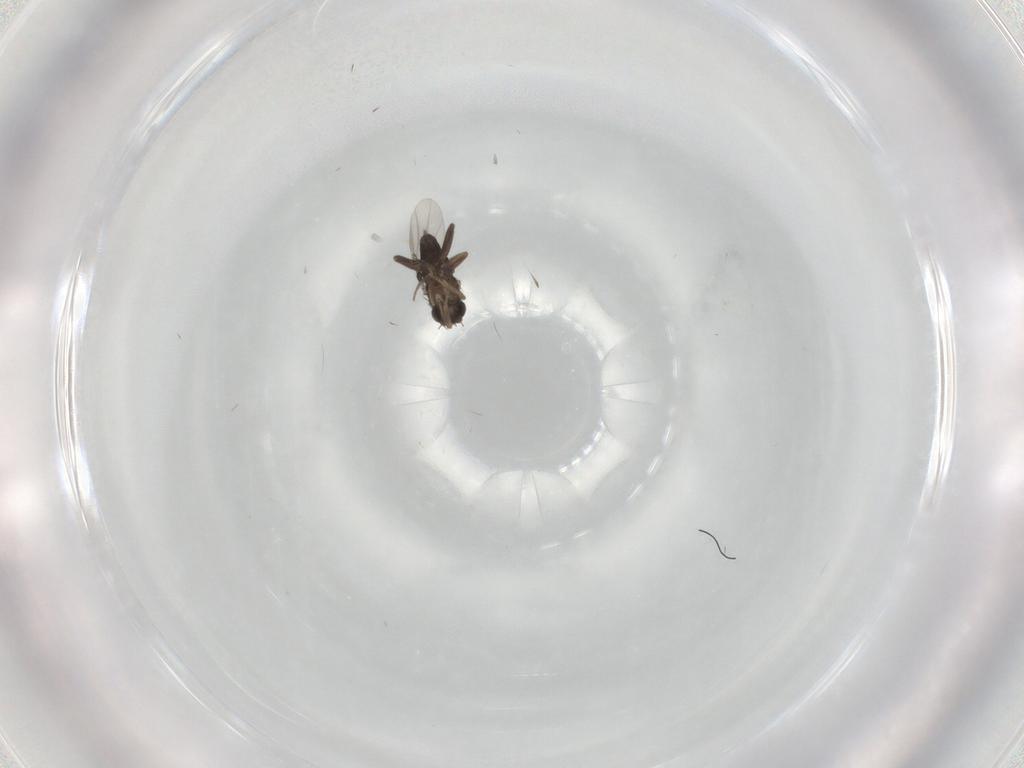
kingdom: Animalia
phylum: Arthropoda
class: Insecta
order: Diptera
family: Phoridae
